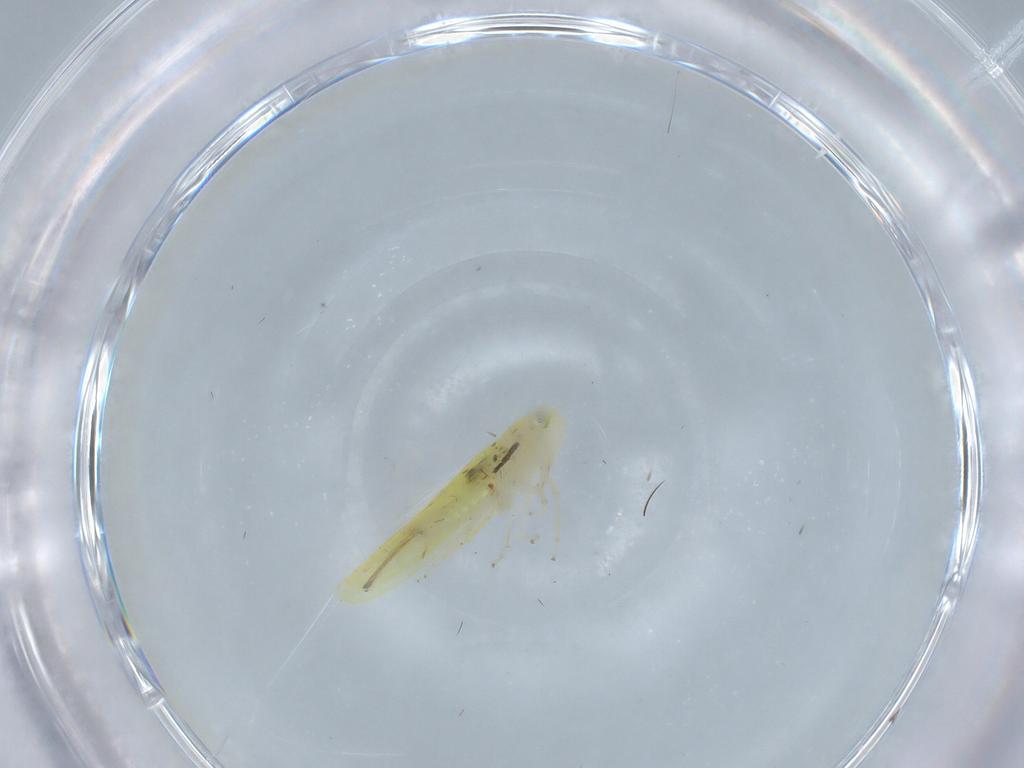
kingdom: Animalia
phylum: Arthropoda
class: Insecta
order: Hemiptera
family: Cicadellidae
